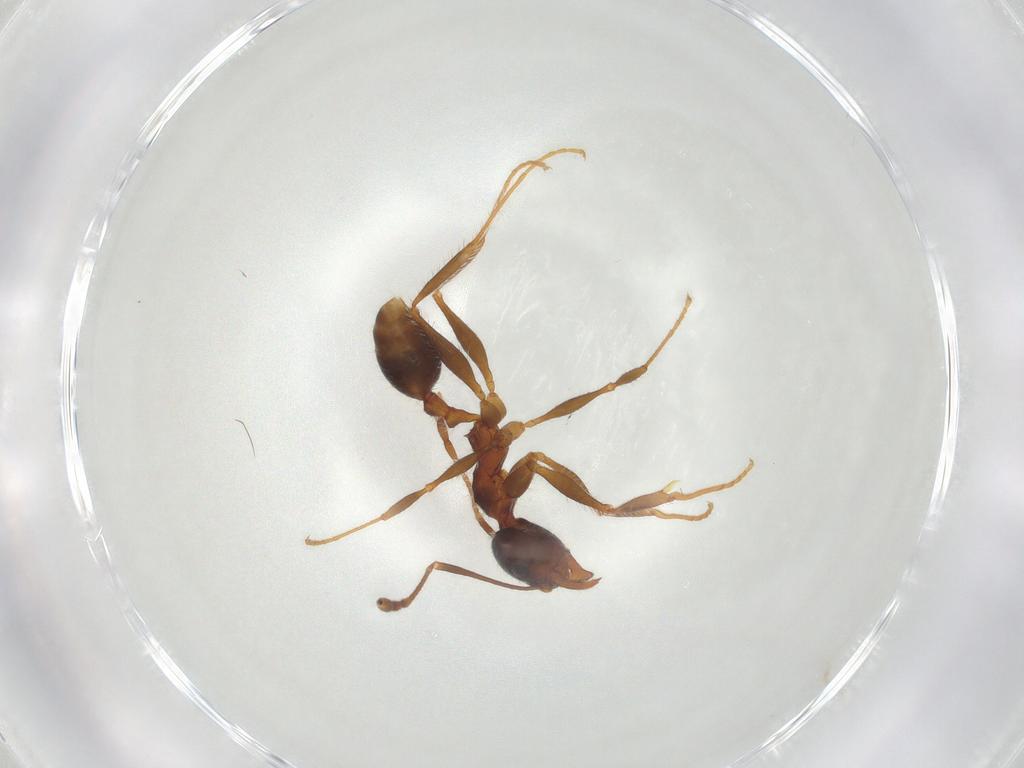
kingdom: Animalia
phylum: Arthropoda
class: Insecta
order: Hymenoptera
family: Formicidae
